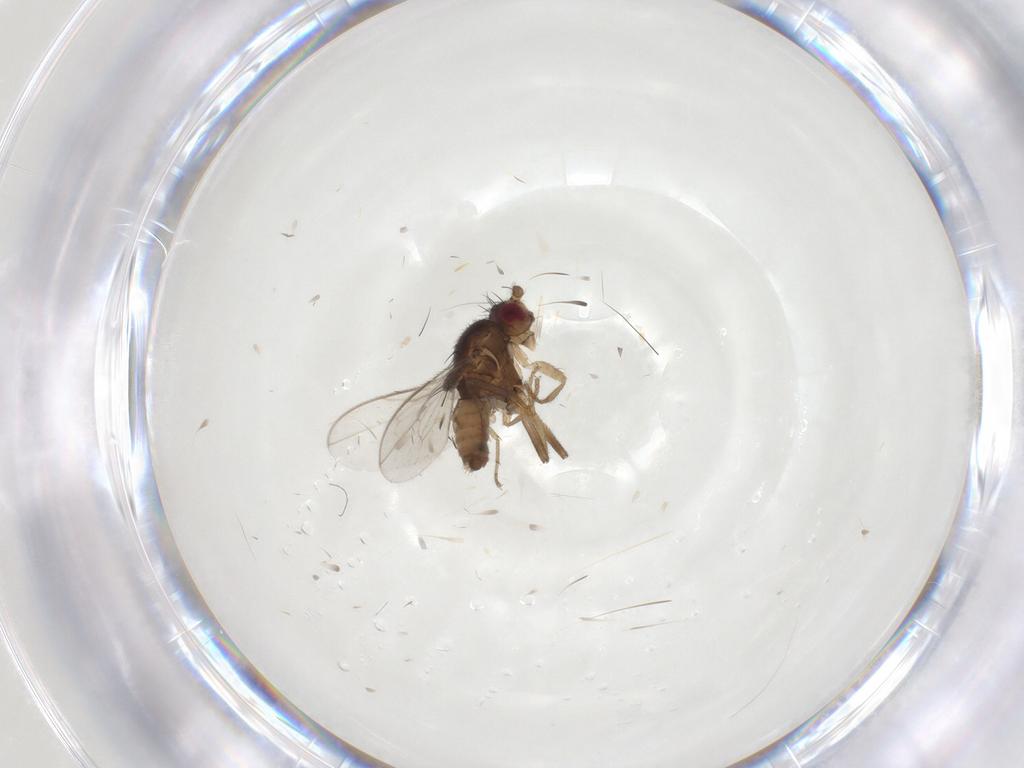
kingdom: Animalia
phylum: Arthropoda
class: Insecta
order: Diptera
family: Sphaeroceridae
